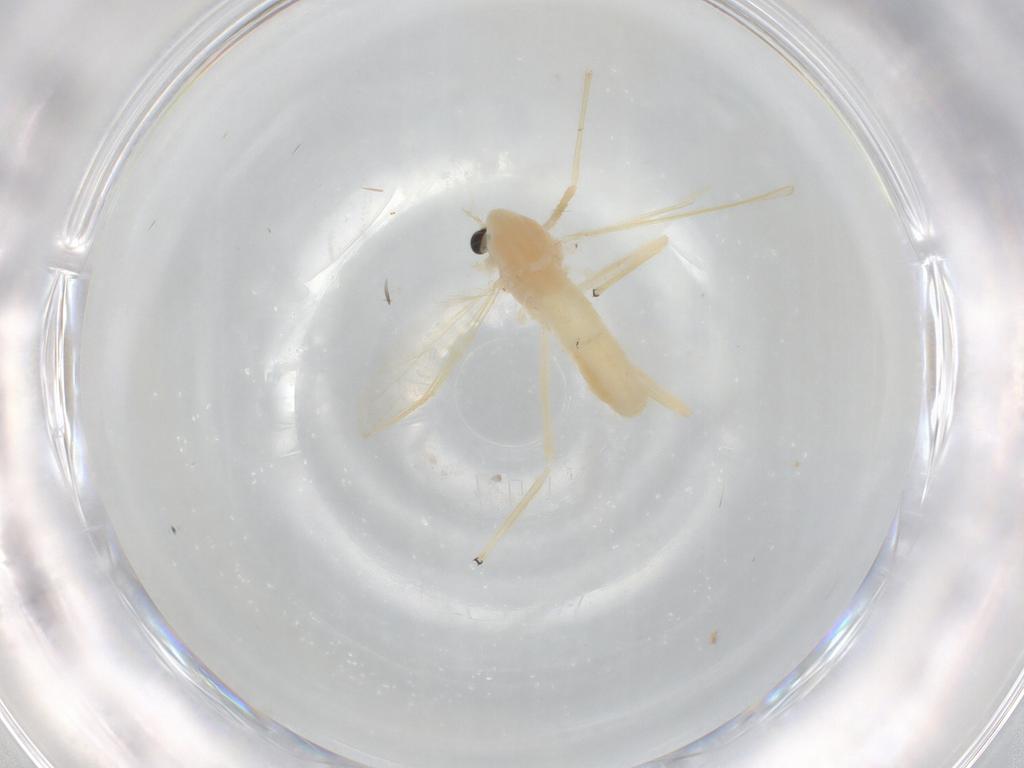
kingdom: Animalia
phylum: Arthropoda
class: Insecta
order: Diptera
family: Chironomidae
